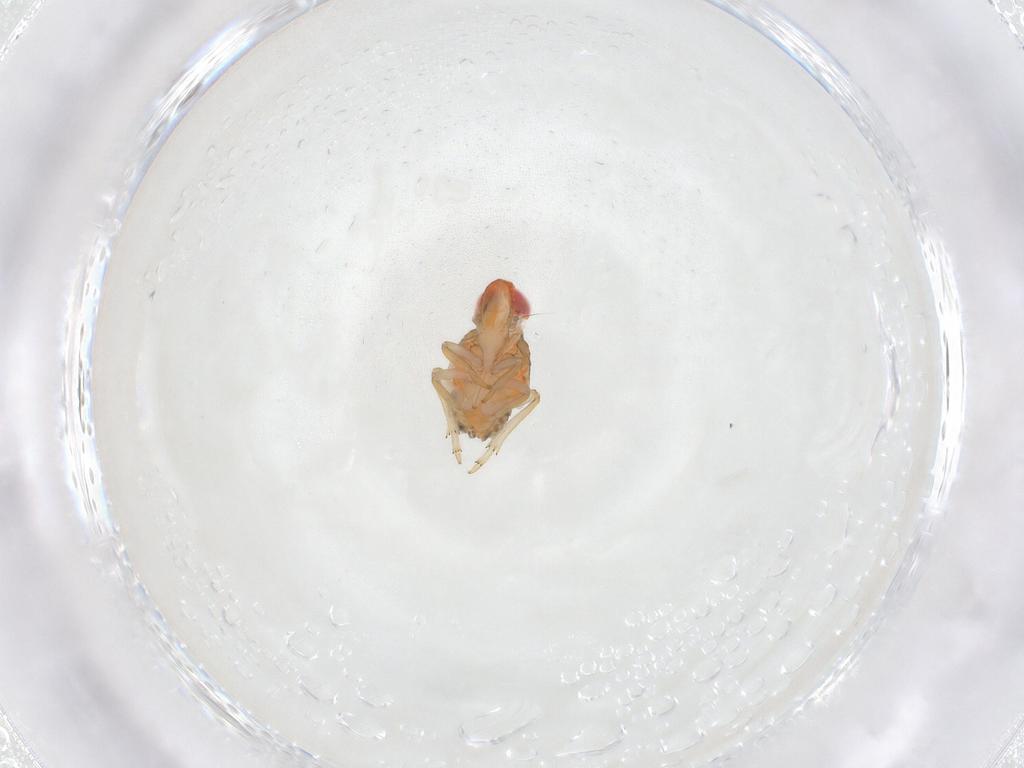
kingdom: Animalia
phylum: Arthropoda
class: Insecta
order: Hemiptera
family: Fulgoroidea_incertae_sedis
